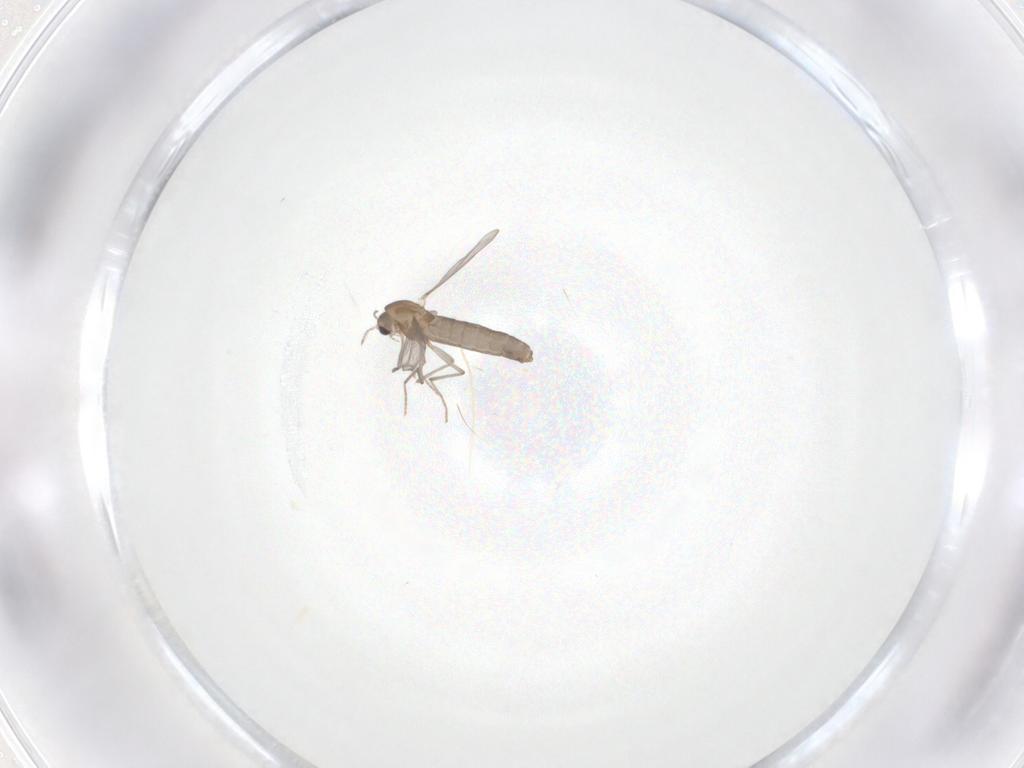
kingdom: Animalia
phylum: Arthropoda
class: Insecta
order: Diptera
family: Chironomidae
